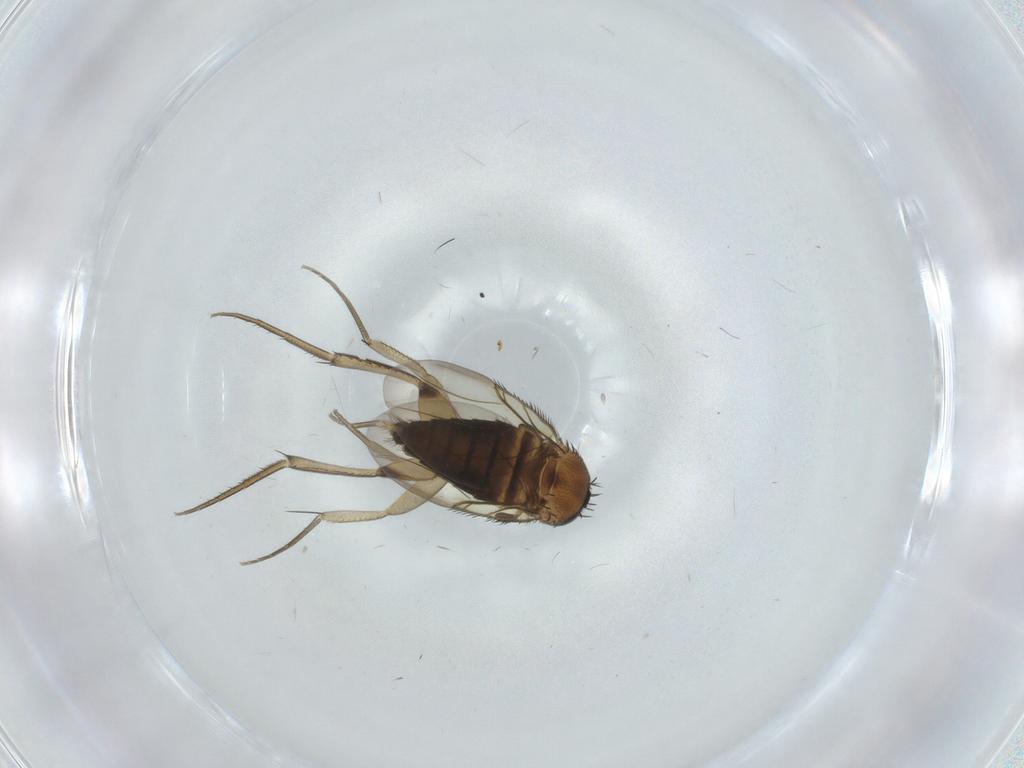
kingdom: Animalia
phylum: Arthropoda
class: Insecta
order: Diptera
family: Phoridae
